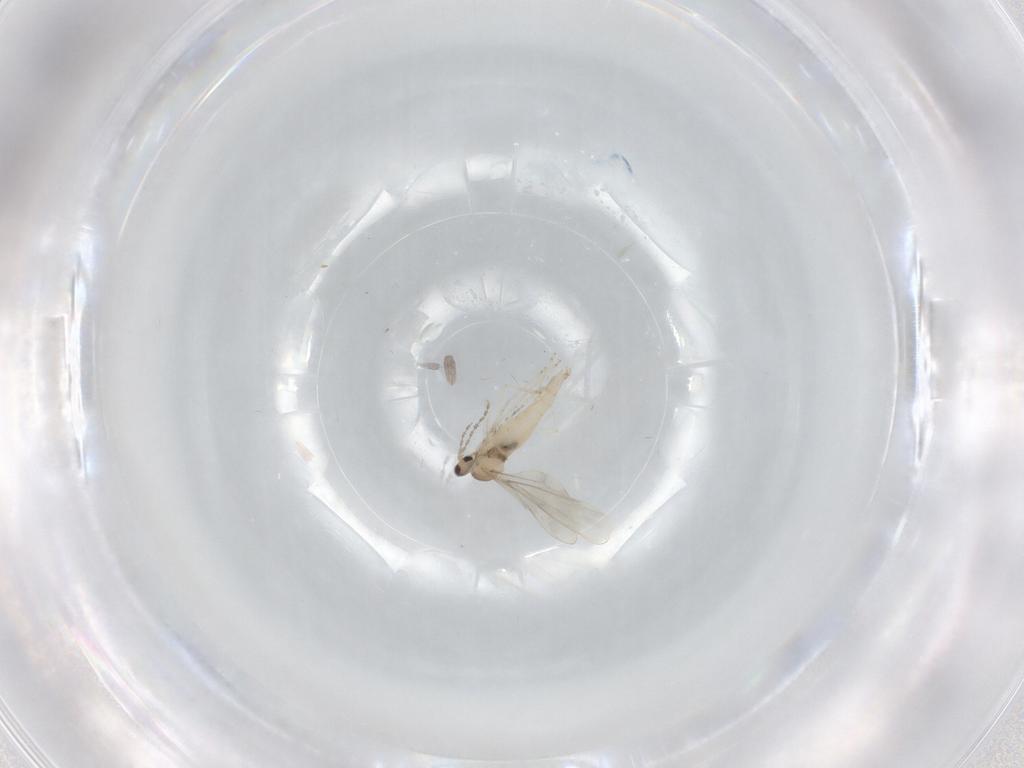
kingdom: Animalia
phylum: Arthropoda
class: Insecta
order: Diptera
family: Cecidomyiidae
